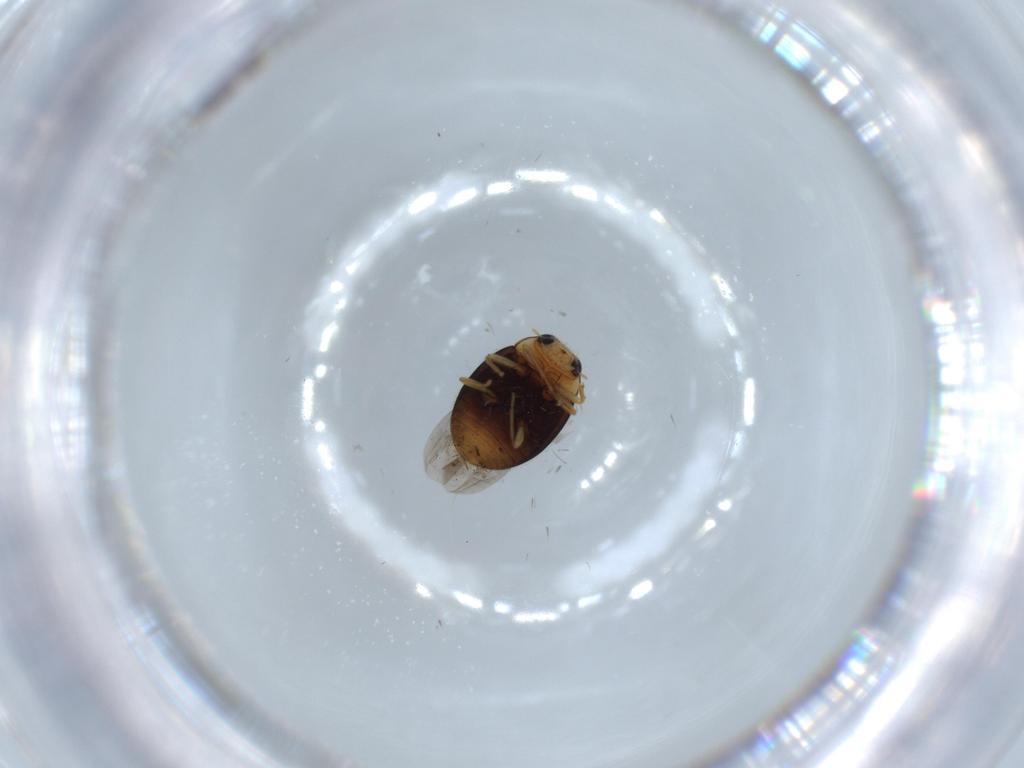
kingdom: Animalia
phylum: Arthropoda
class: Insecta
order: Coleoptera
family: Coccinellidae
